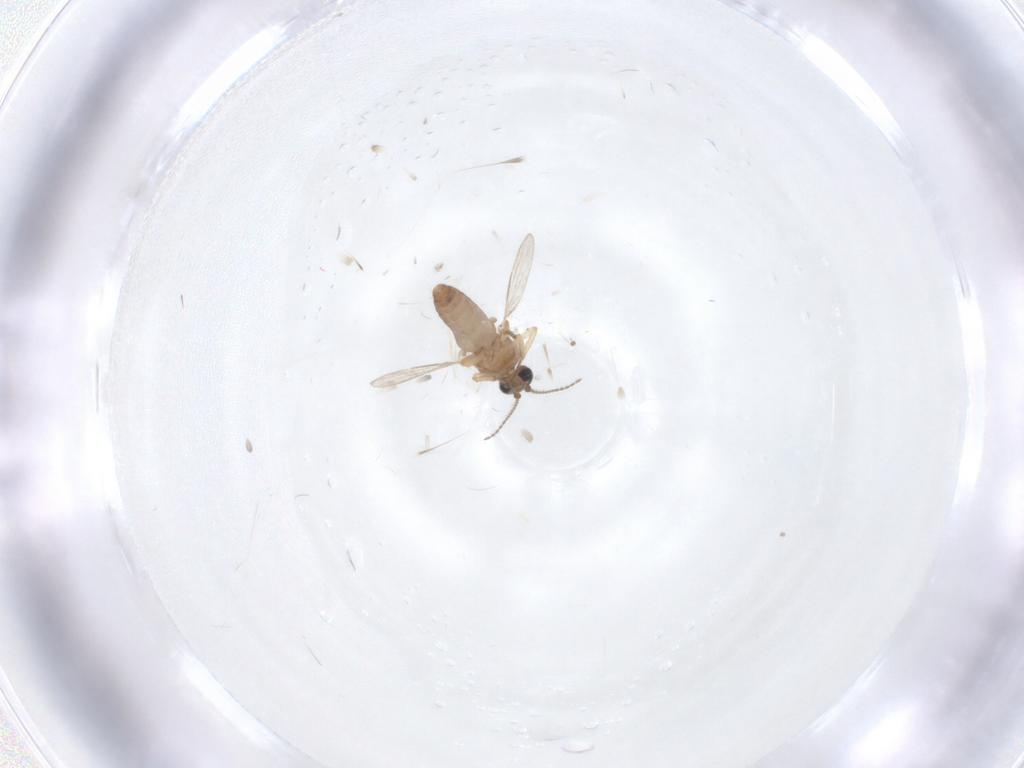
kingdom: Animalia
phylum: Arthropoda
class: Insecta
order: Diptera
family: Ceratopogonidae
